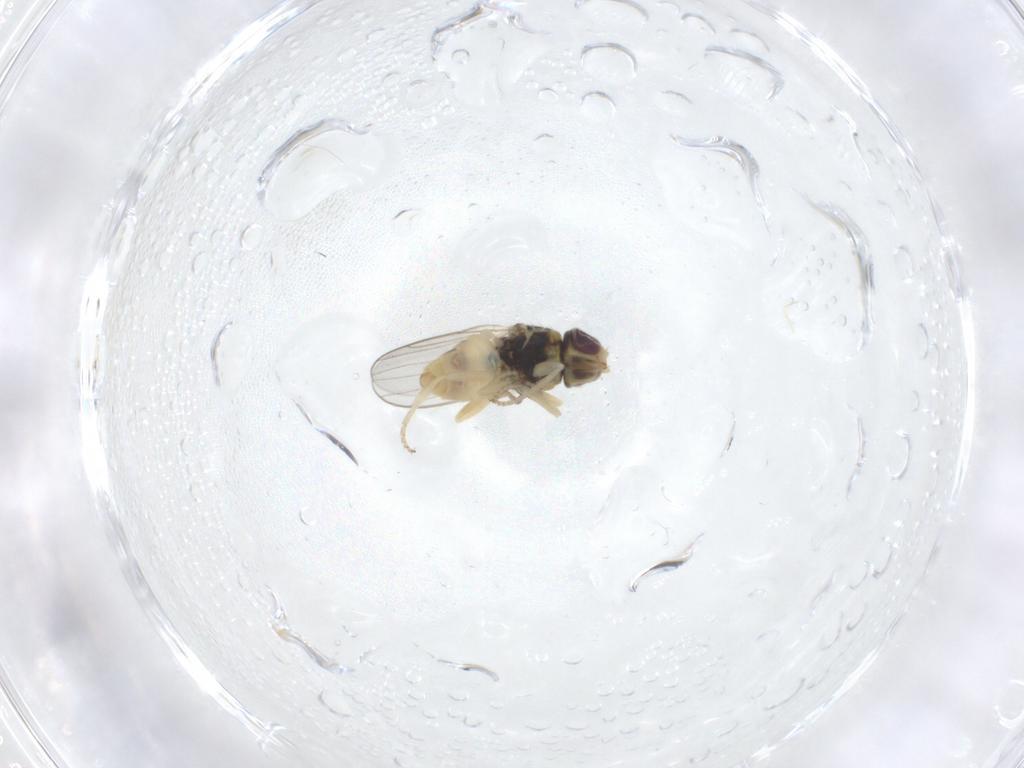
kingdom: Animalia
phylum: Arthropoda
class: Insecta
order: Diptera
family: Chloropidae
